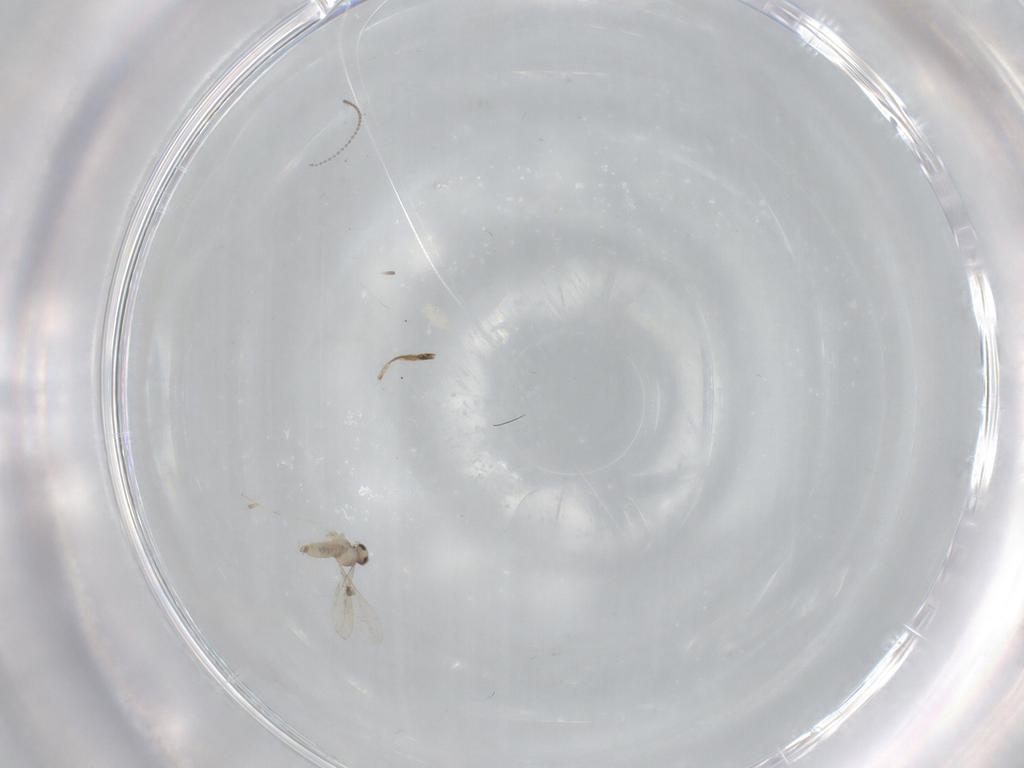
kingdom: Animalia
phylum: Arthropoda
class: Insecta
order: Diptera
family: Cecidomyiidae
